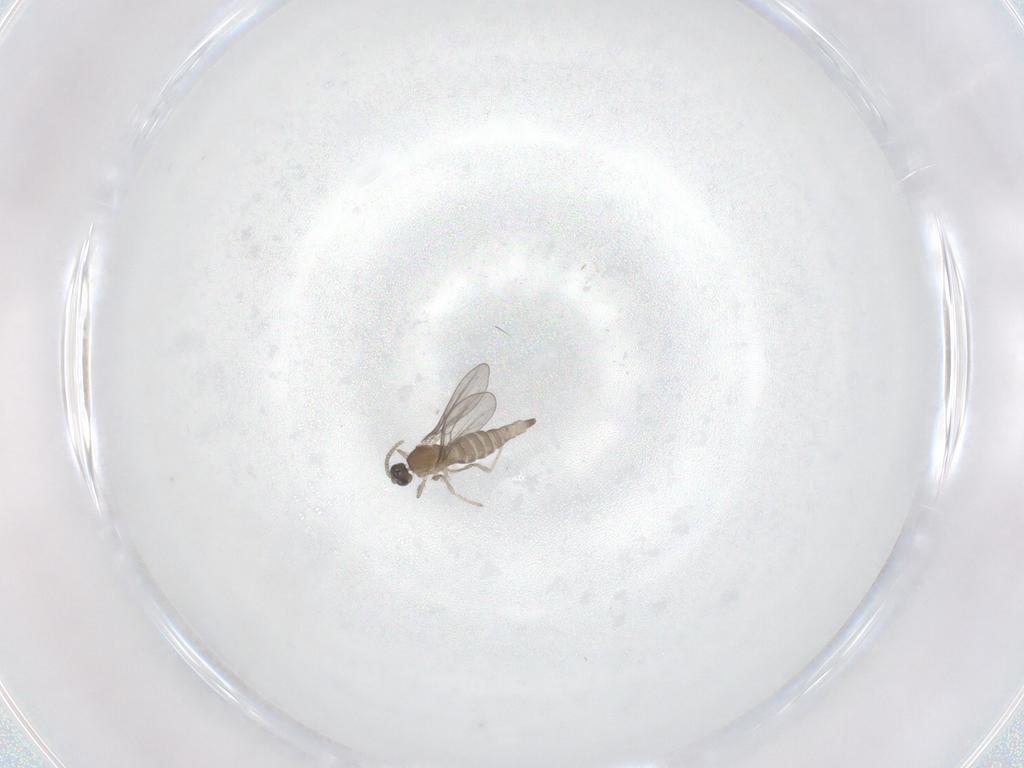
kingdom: Animalia
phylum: Arthropoda
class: Insecta
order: Diptera
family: Cecidomyiidae
